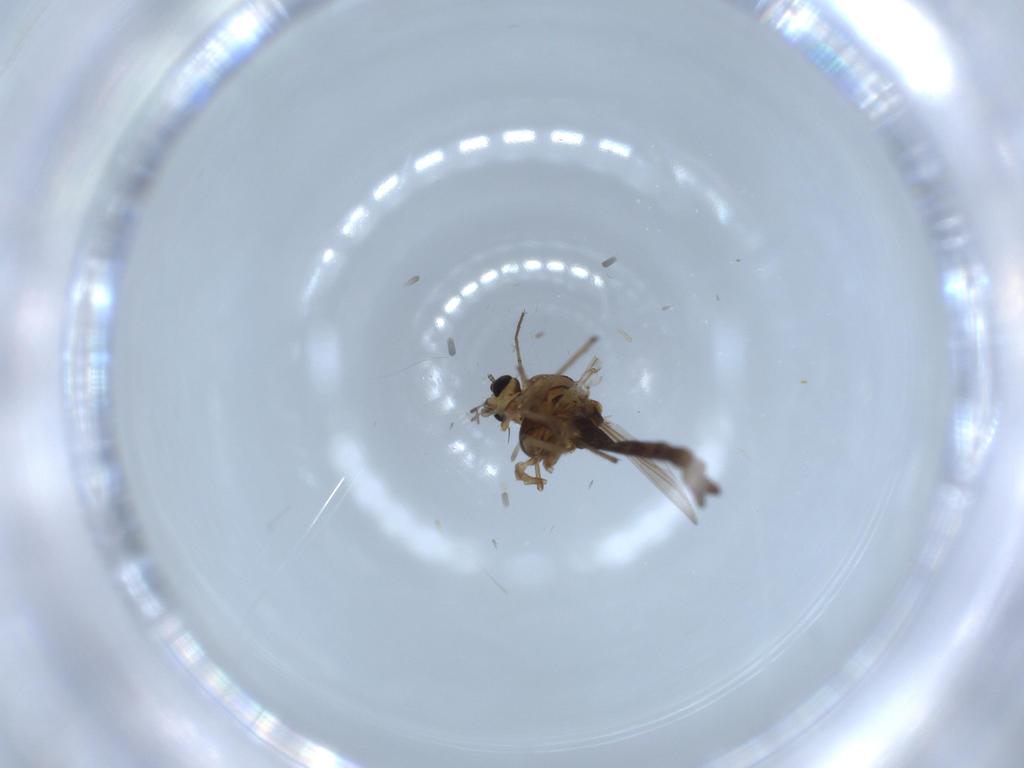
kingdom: Animalia
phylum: Arthropoda
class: Insecta
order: Diptera
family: Chironomidae
